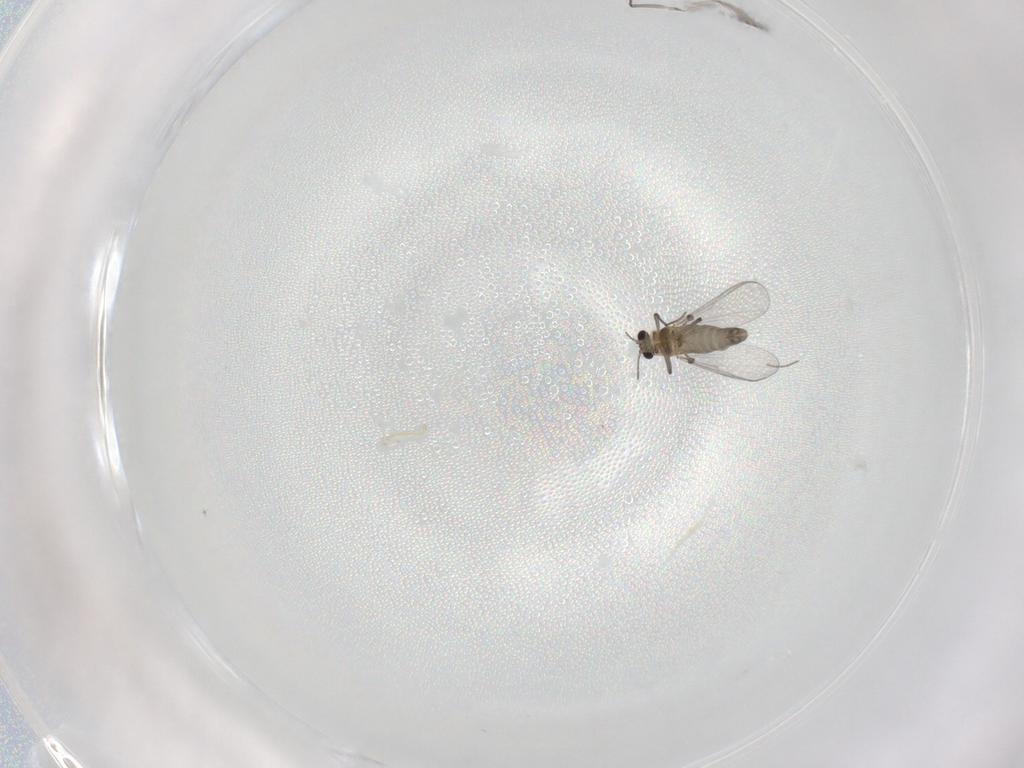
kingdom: Animalia
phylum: Arthropoda
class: Insecta
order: Diptera
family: Chironomidae
